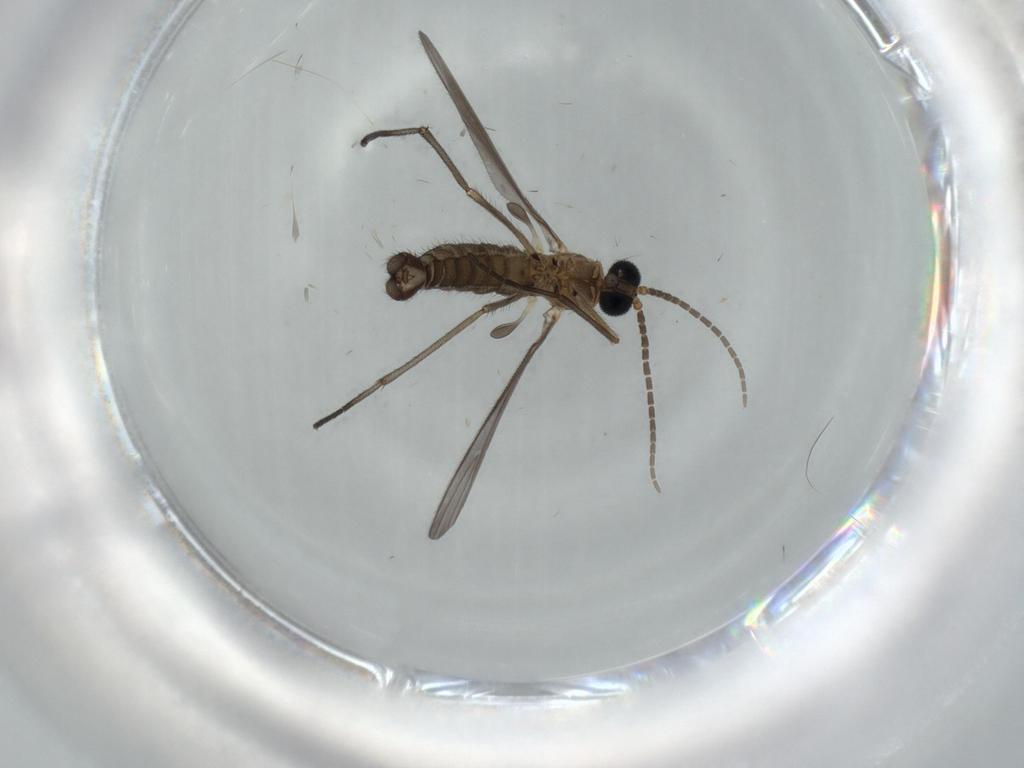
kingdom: Animalia
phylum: Arthropoda
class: Insecta
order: Diptera
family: Sciaridae
